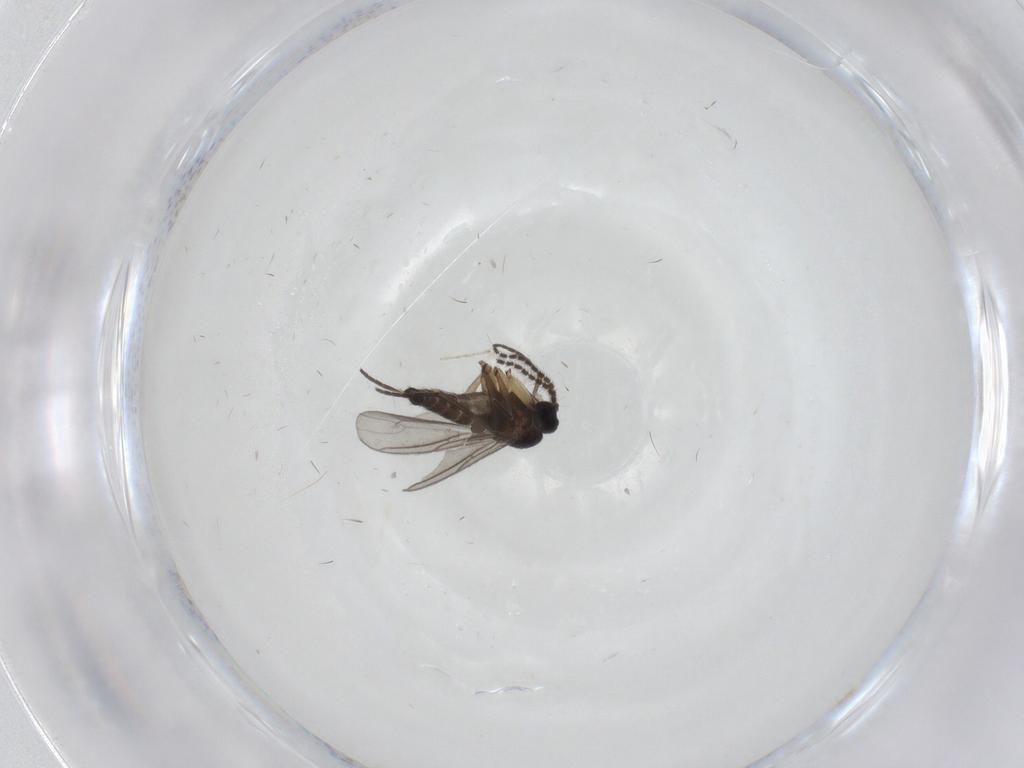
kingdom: Animalia
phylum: Arthropoda
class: Insecta
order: Diptera
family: Cecidomyiidae
